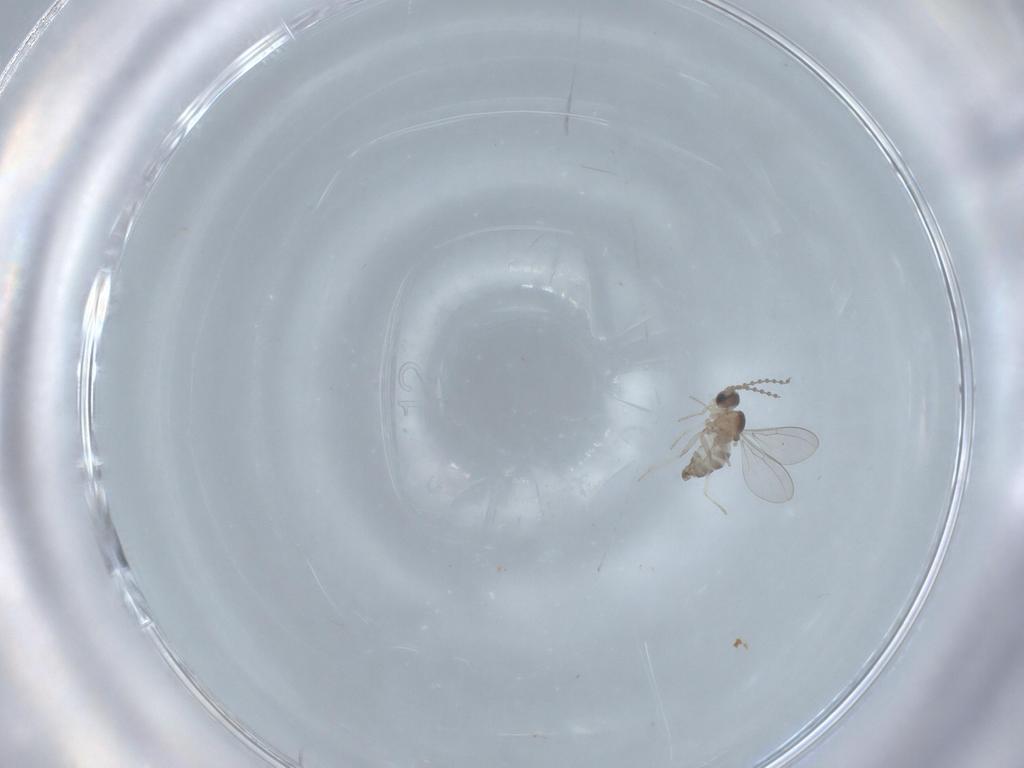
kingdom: Animalia
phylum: Arthropoda
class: Insecta
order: Diptera
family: Cecidomyiidae
